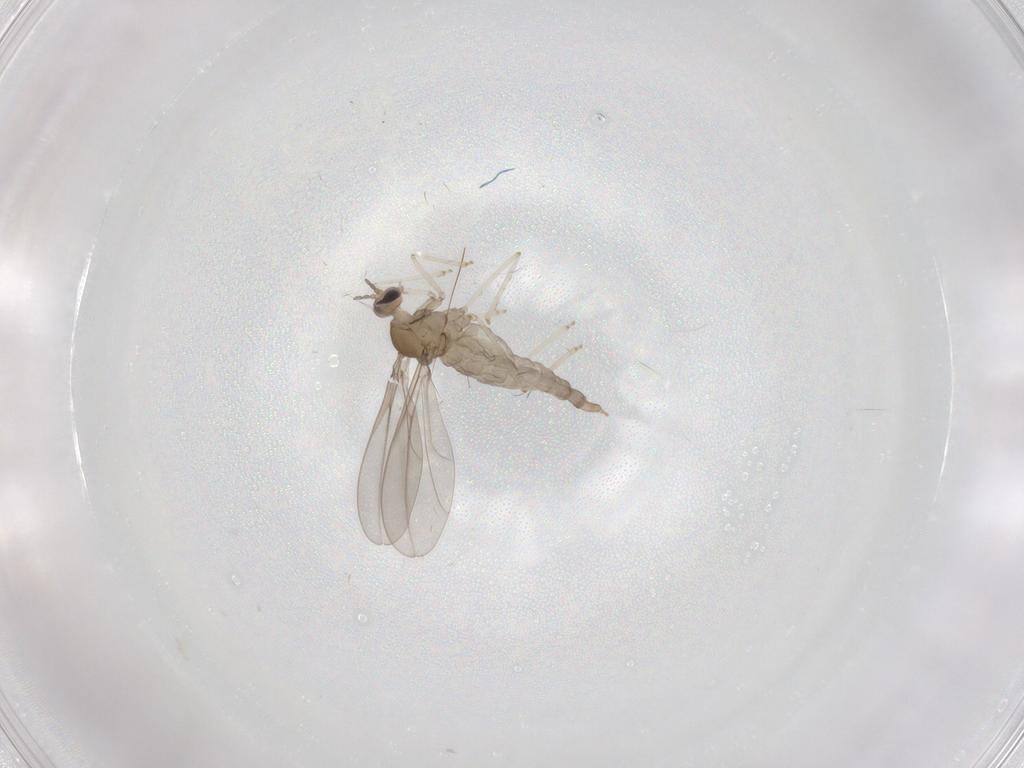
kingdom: Animalia
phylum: Arthropoda
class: Insecta
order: Diptera
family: Cecidomyiidae
